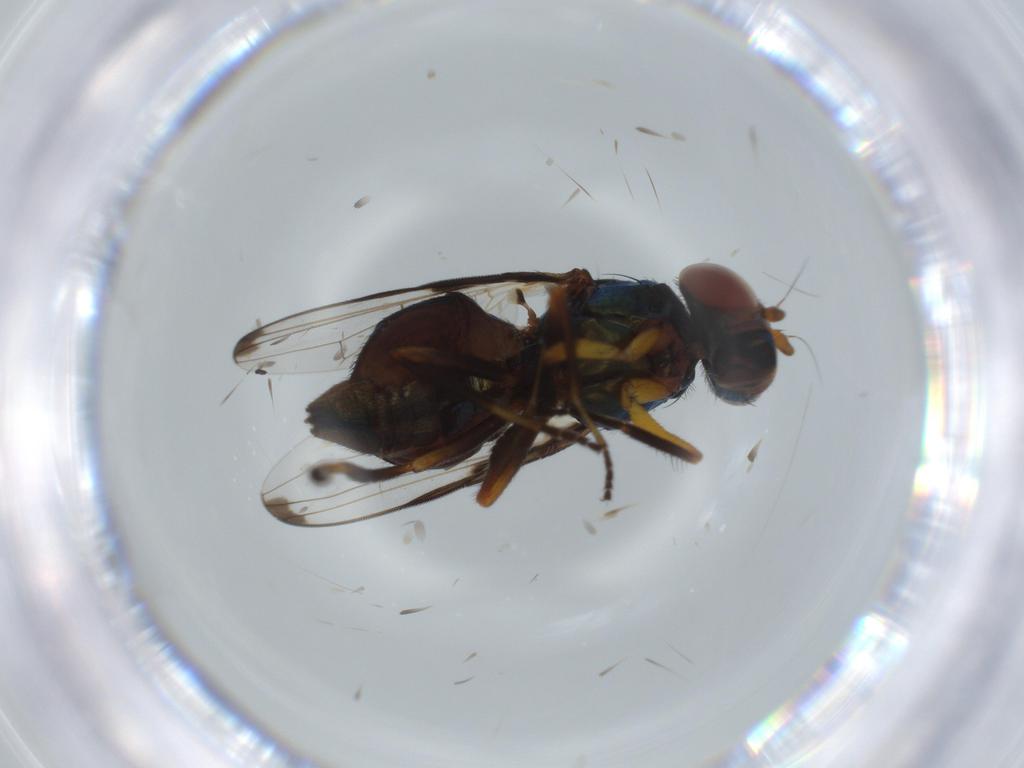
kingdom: Animalia
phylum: Arthropoda
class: Insecta
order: Diptera
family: Ulidiidae
